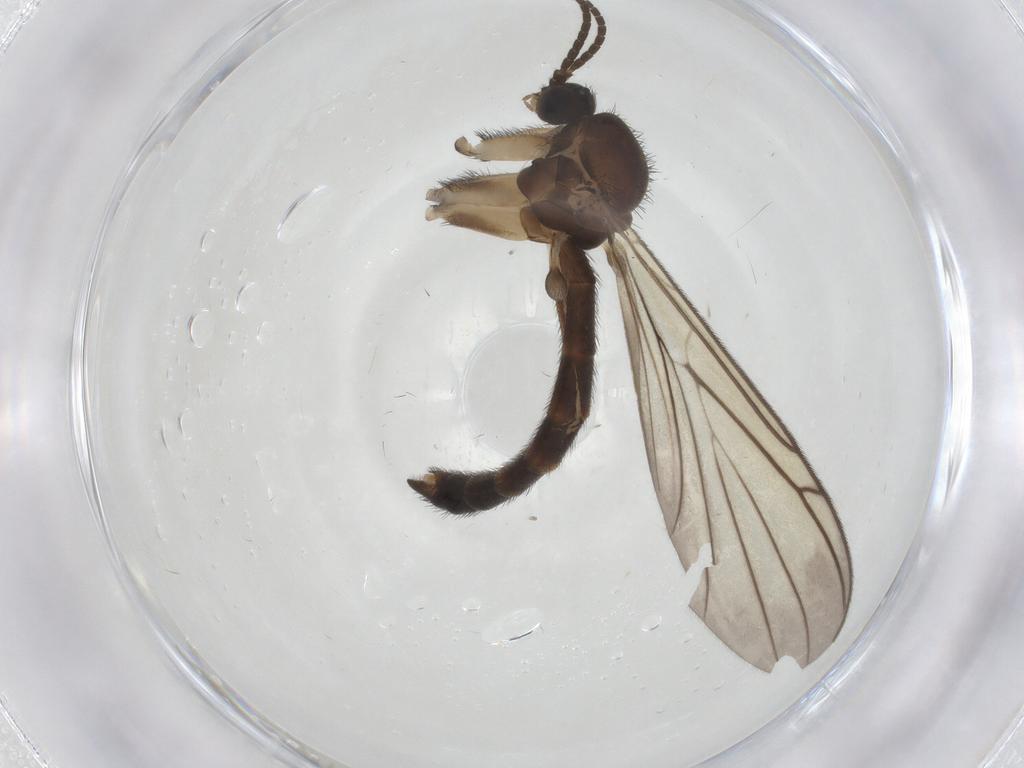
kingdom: Animalia
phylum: Arthropoda
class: Insecta
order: Diptera
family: Tachinidae
